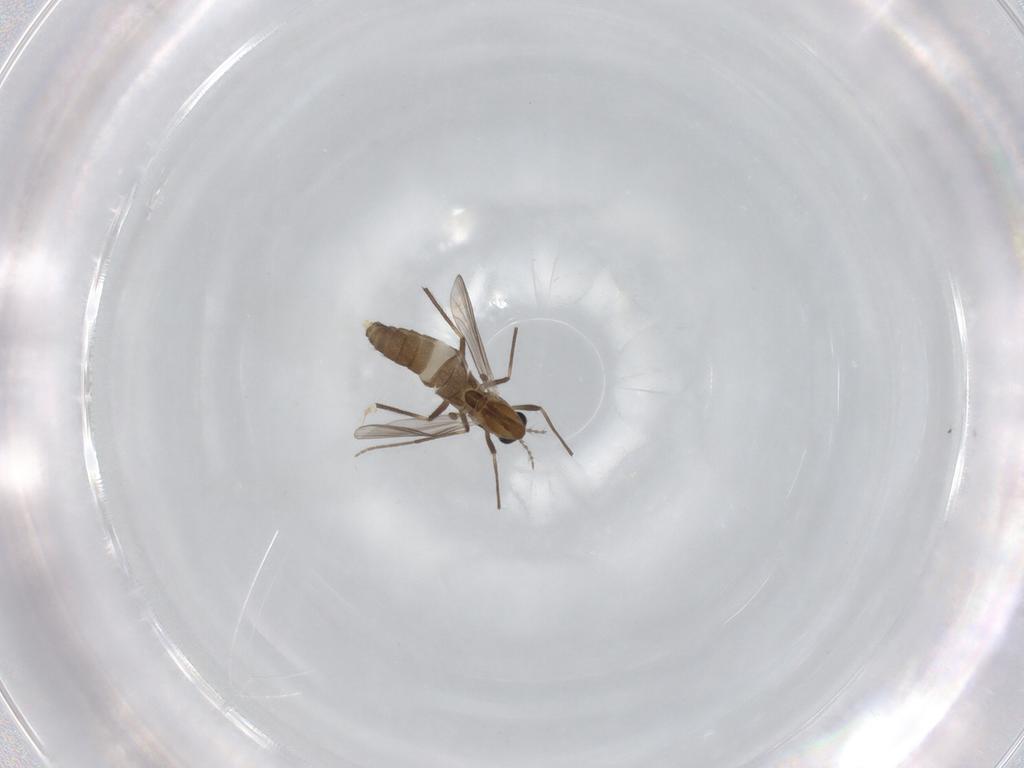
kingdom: Animalia
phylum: Arthropoda
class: Insecta
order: Diptera
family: Chironomidae
